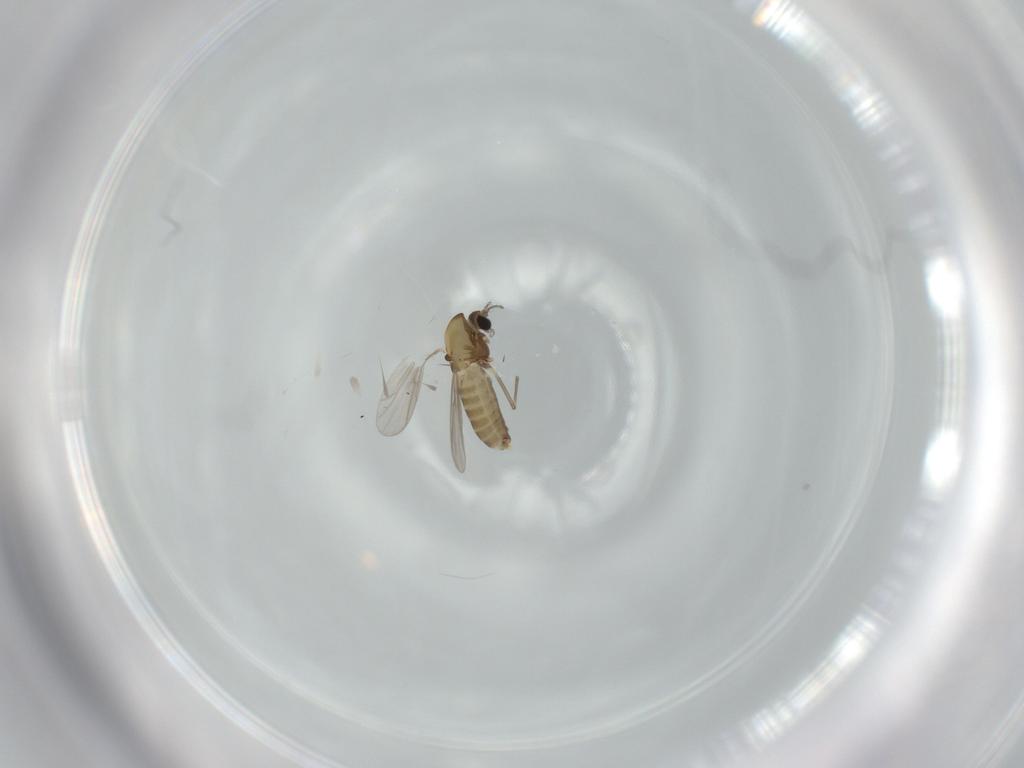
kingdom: Animalia
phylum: Arthropoda
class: Insecta
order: Diptera
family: Chironomidae
